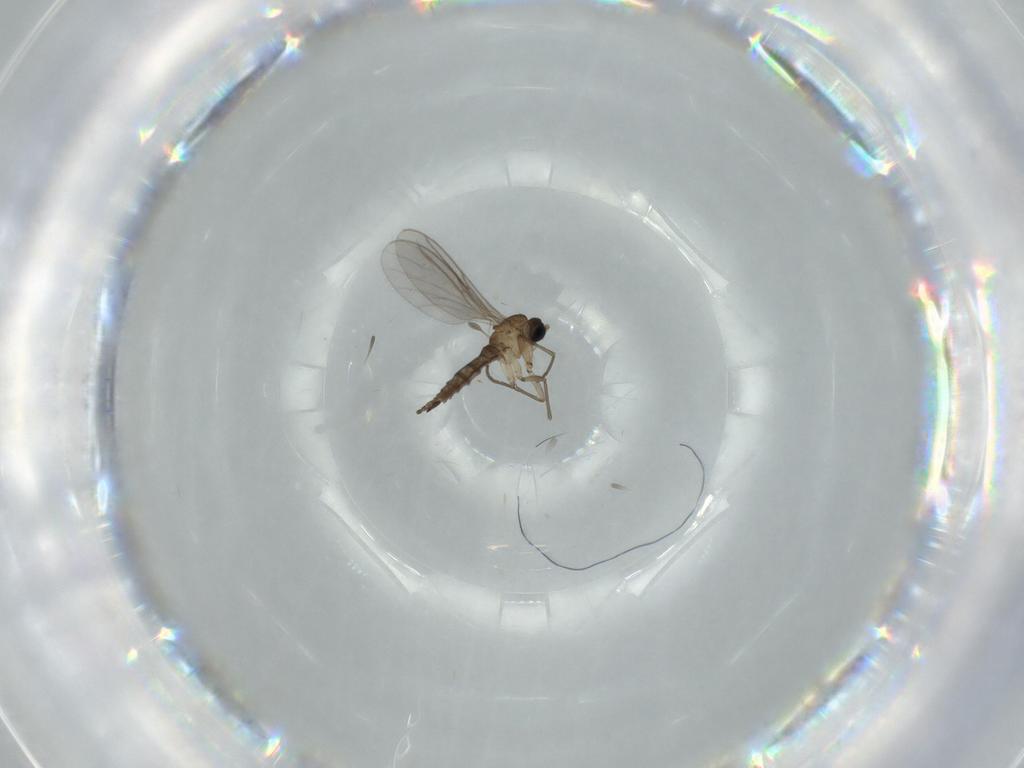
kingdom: Animalia
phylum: Arthropoda
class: Insecta
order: Diptera
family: Sciaridae
